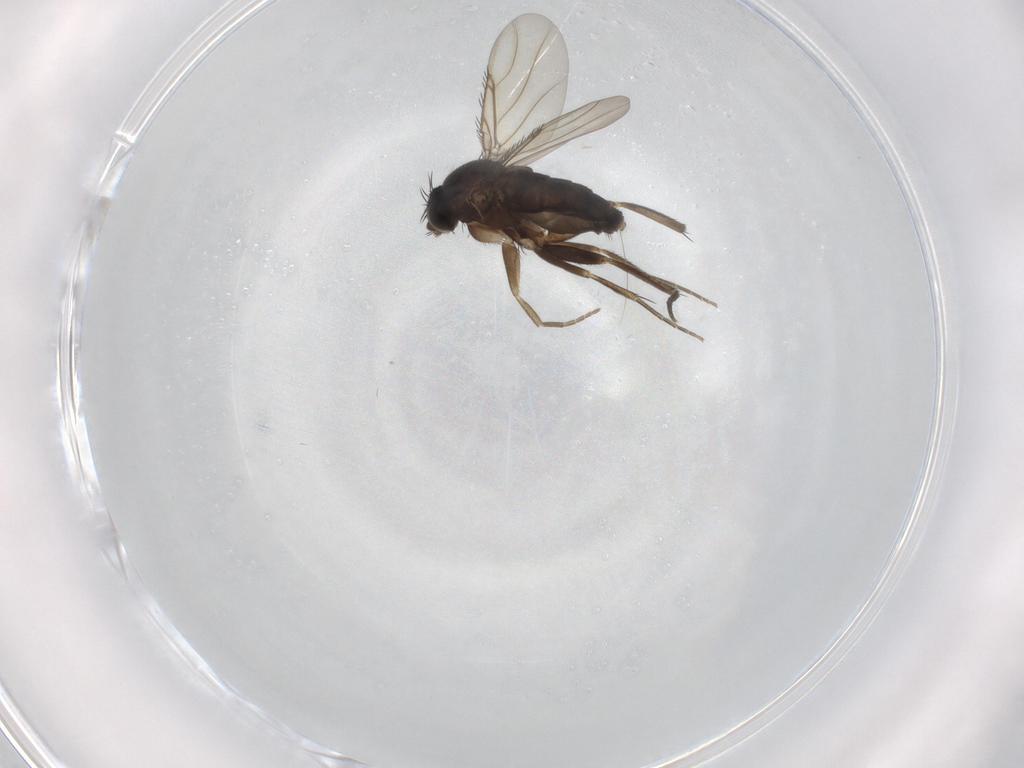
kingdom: Animalia
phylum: Arthropoda
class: Insecta
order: Diptera
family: Phoridae
